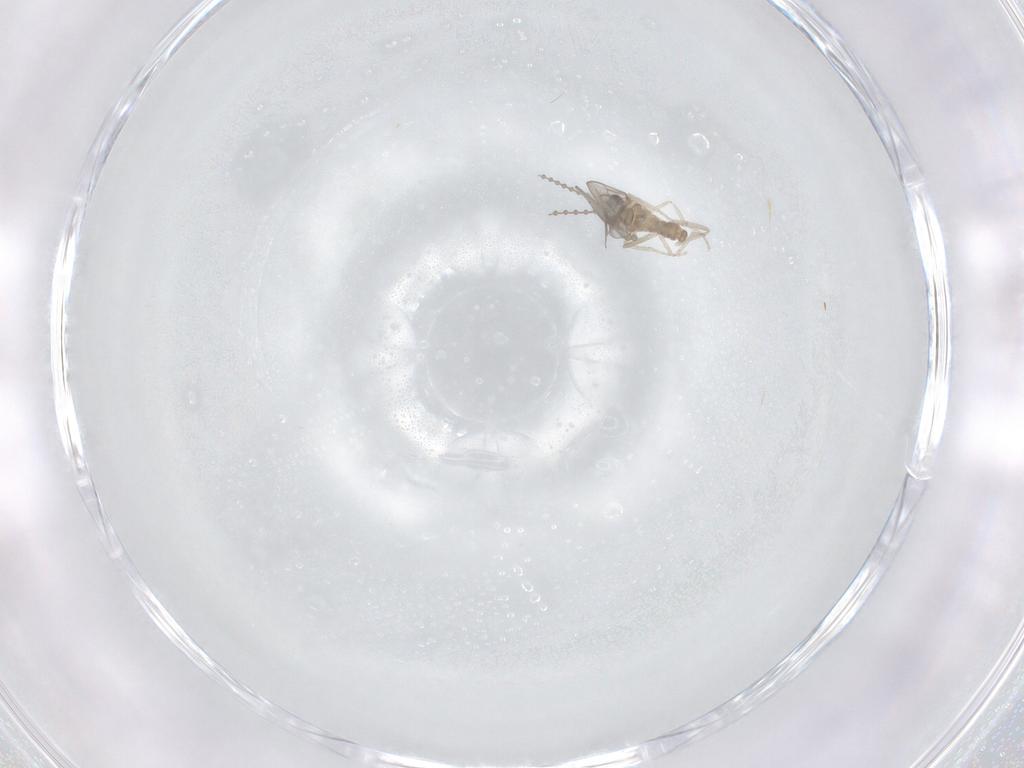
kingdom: Animalia
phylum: Arthropoda
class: Insecta
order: Diptera
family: Cecidomyiidae
